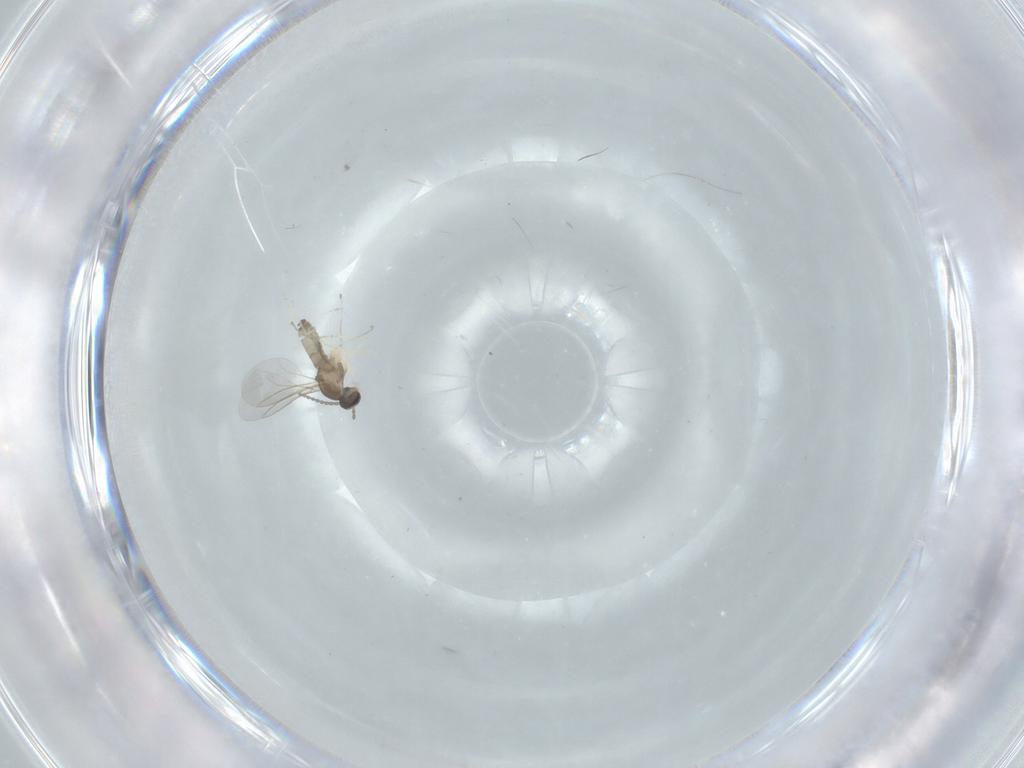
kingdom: Animalia
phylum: Arthropoda
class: Insecta
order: Diptera
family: Cecidomyiidae
